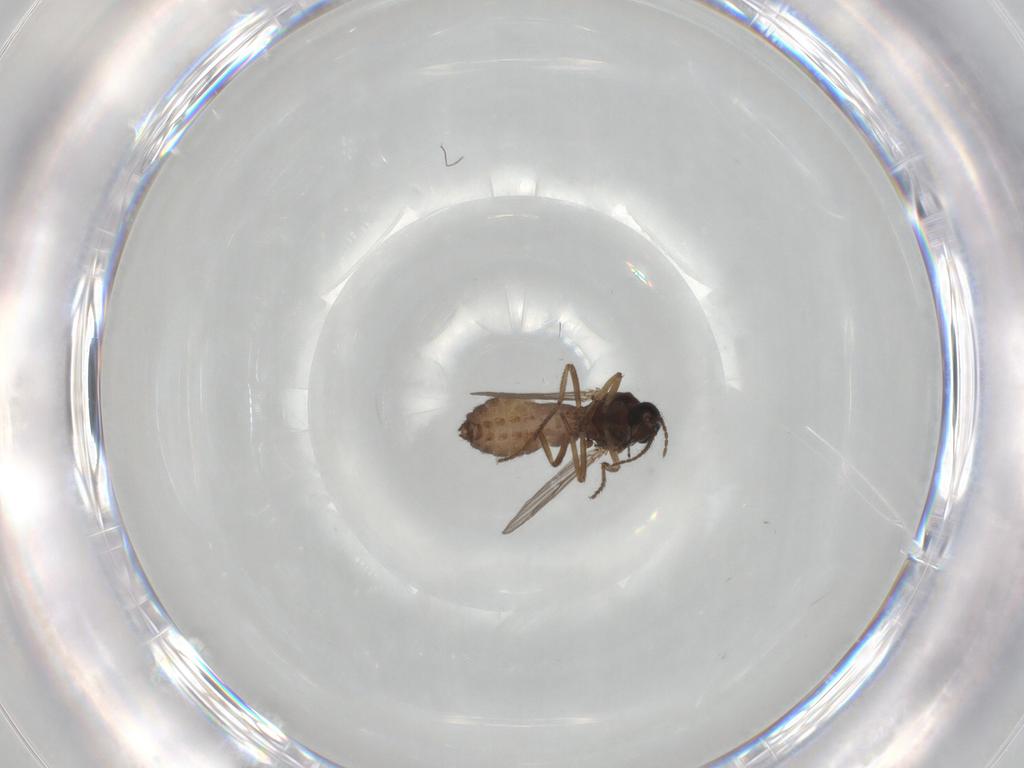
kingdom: Animalia
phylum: Arthropoda
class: Insecta
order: Diptera
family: Ceratopogonidae
